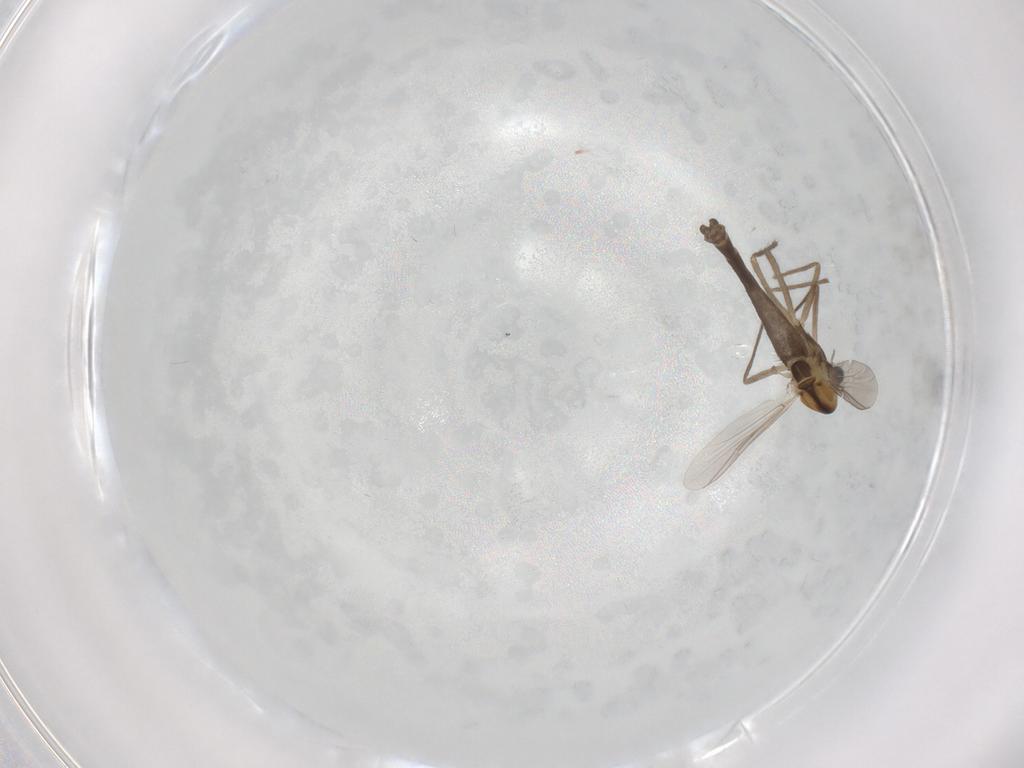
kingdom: Animalia
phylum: Arthropoda
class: Insecta
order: Diptera
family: Chironomidae
